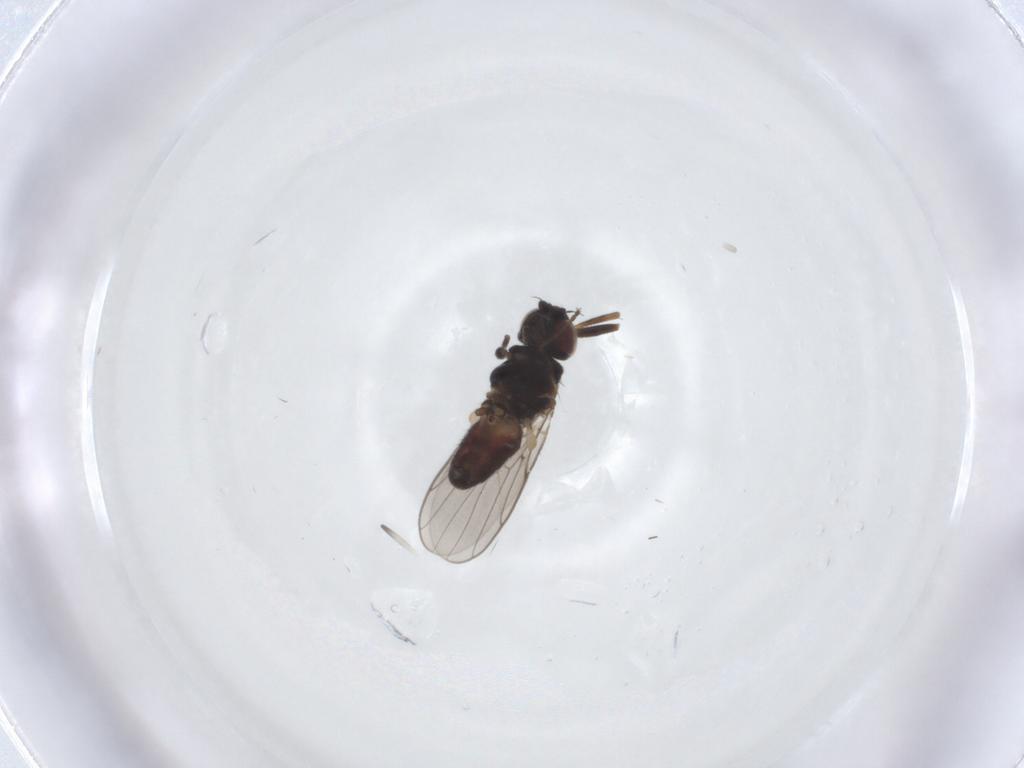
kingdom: Animalia
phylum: Arthropoda
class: Insecta
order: Diptera
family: Chloropidae
